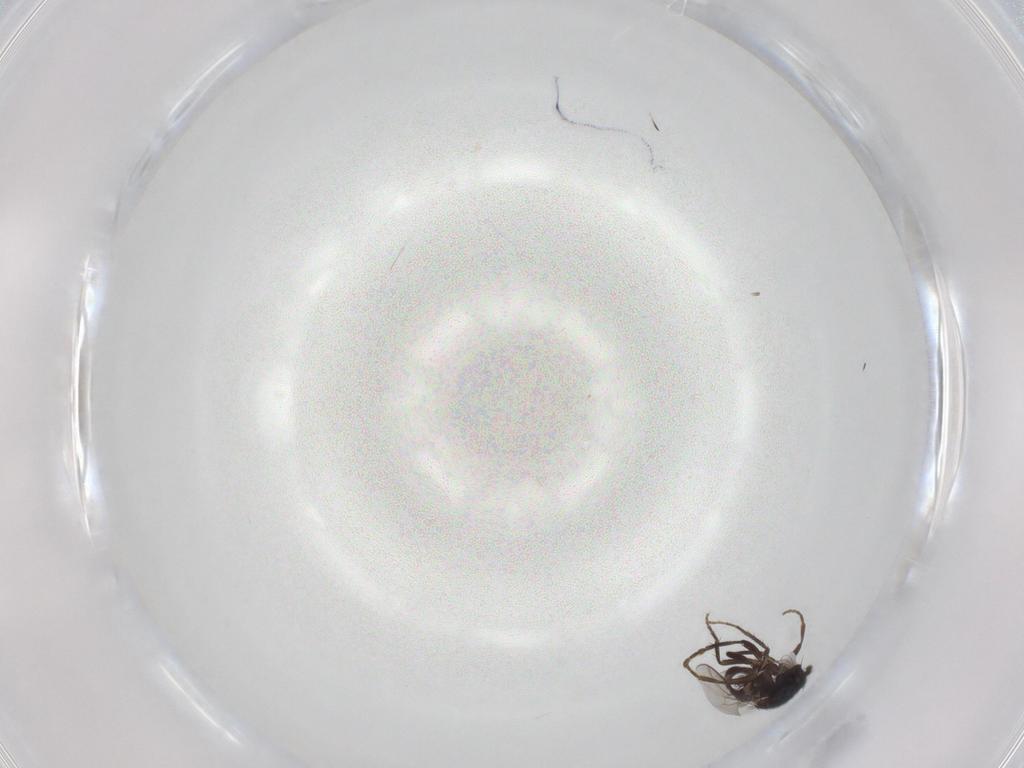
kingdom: Animalia
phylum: Arthropoda
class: Insecta
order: Diptera
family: Sphaeroceridae
